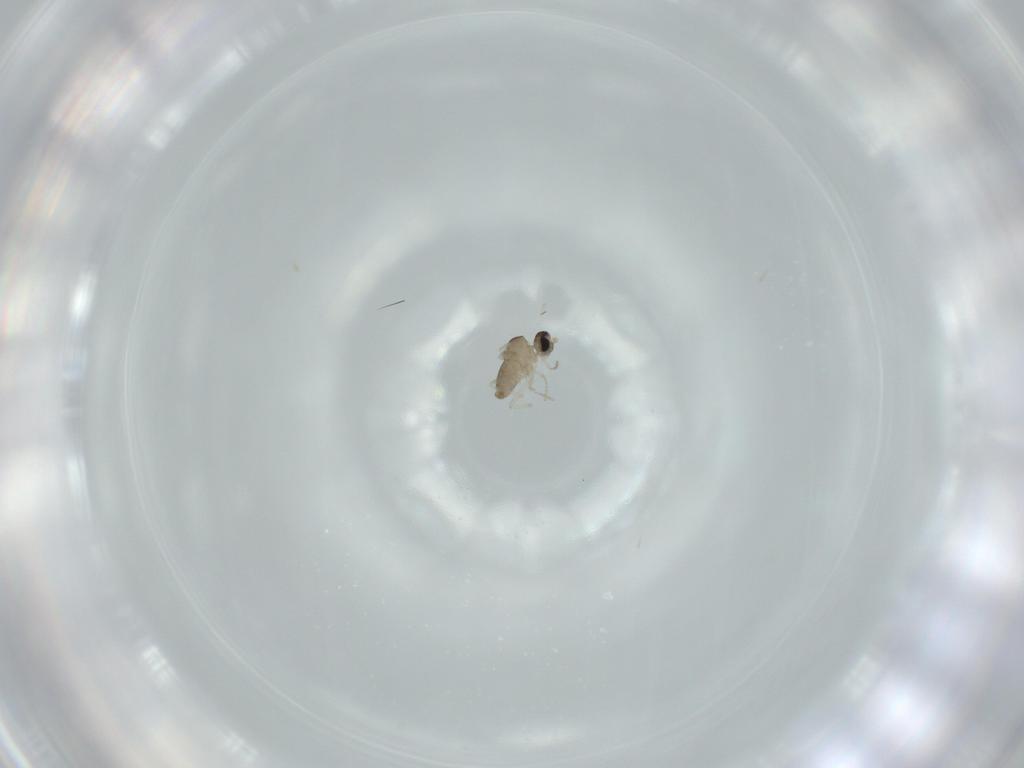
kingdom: Animalia
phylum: Arthropoda
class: Insecta
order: Diptera
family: Cecidomyiidae
